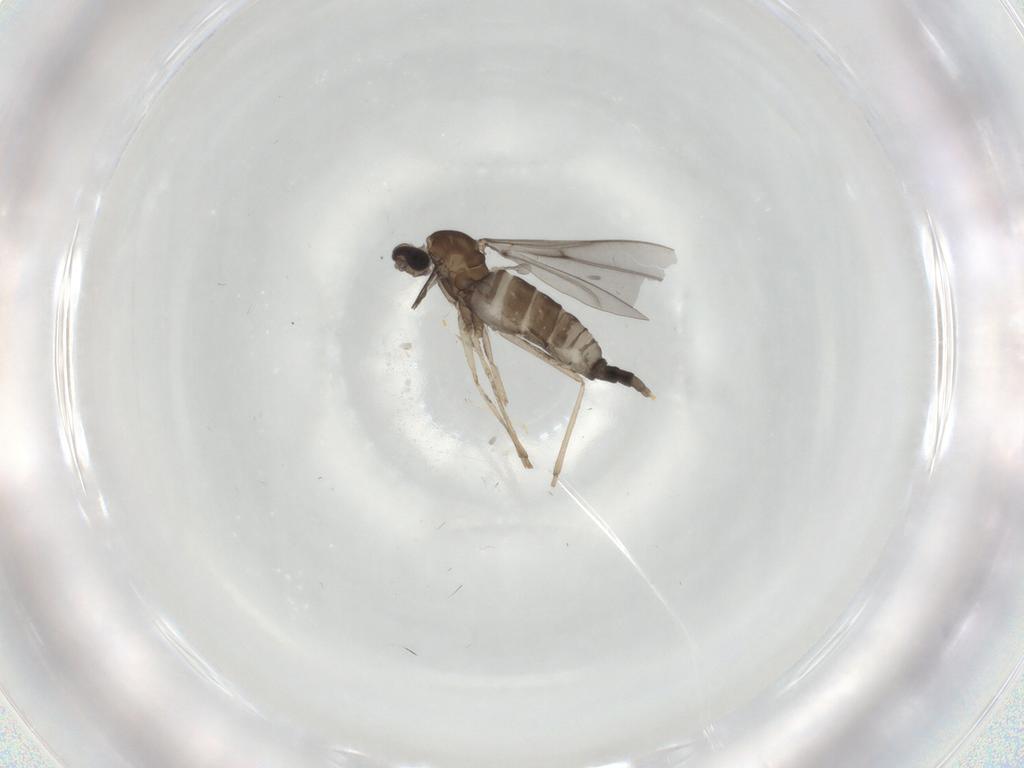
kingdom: Animalia
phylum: Arthropoda
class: Insecta
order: Diptera
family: Cecidomyiidae
